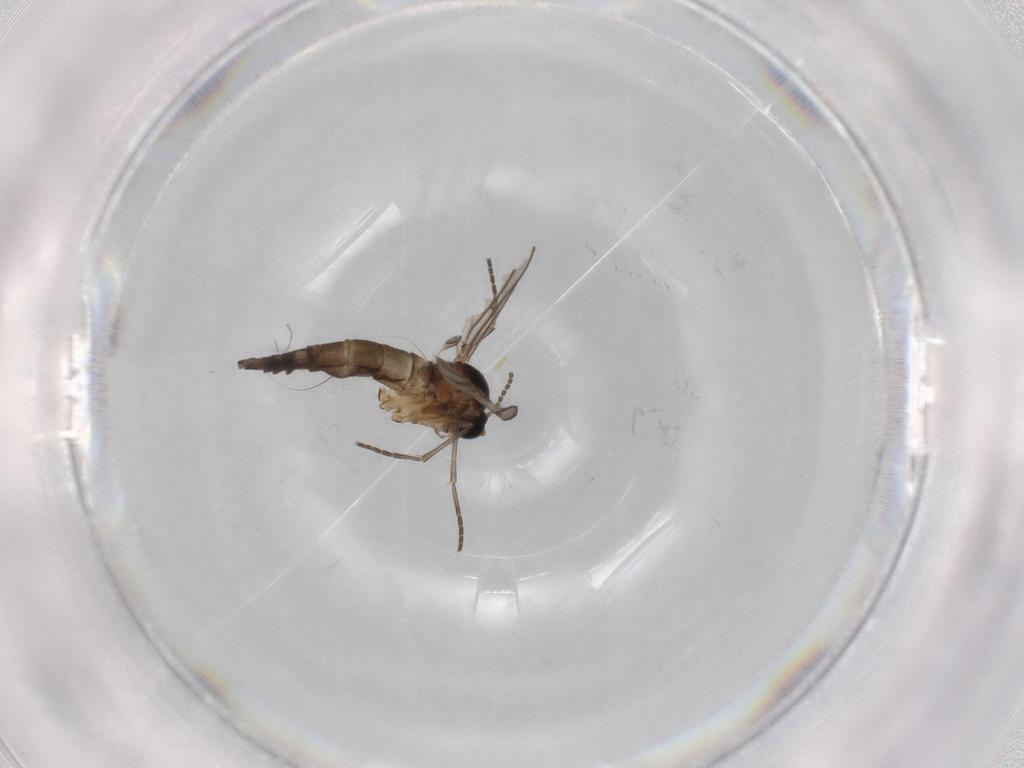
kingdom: Animalia
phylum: Arthropoda
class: Insecta
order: Diptera
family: Sciaridae
